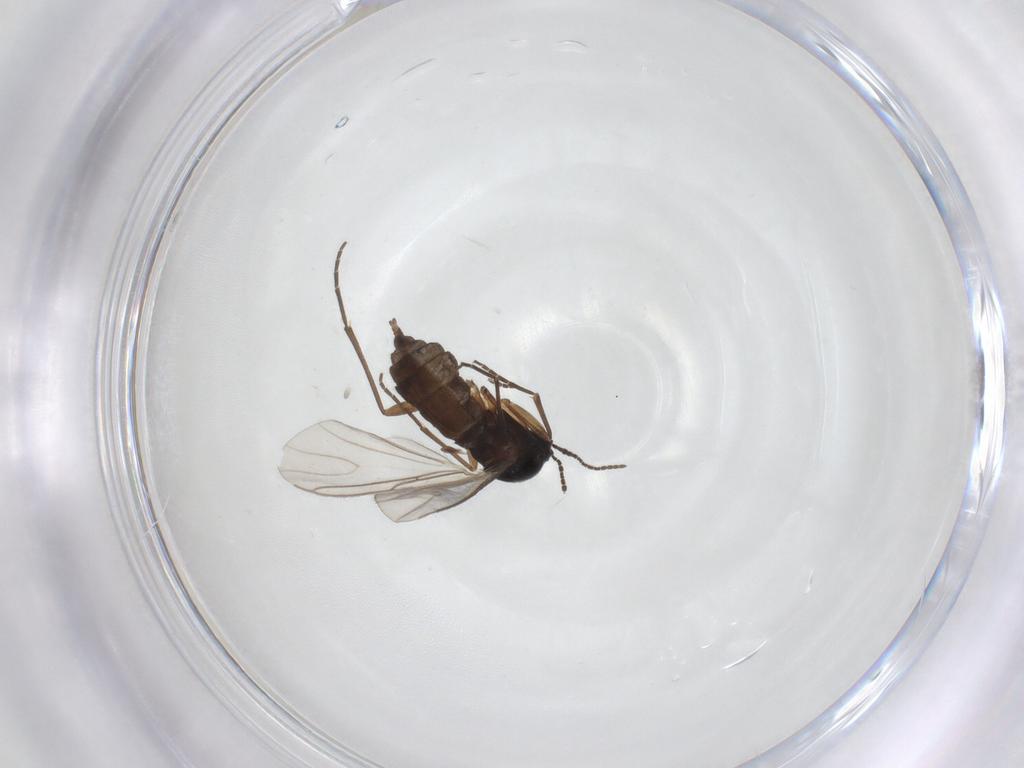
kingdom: Animalia
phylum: Arthropoda
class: Insecta
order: Diptera
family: Sciaridae
